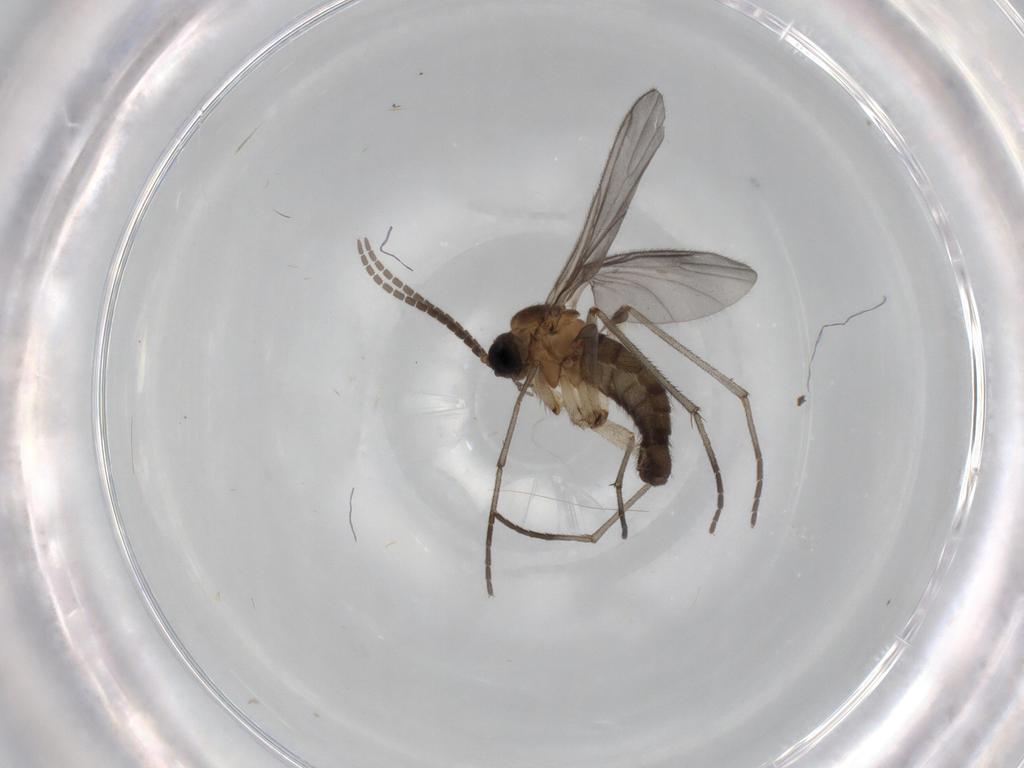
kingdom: Animalia
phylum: Arthropoda
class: Insecta
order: Diptera
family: Sciaridae
